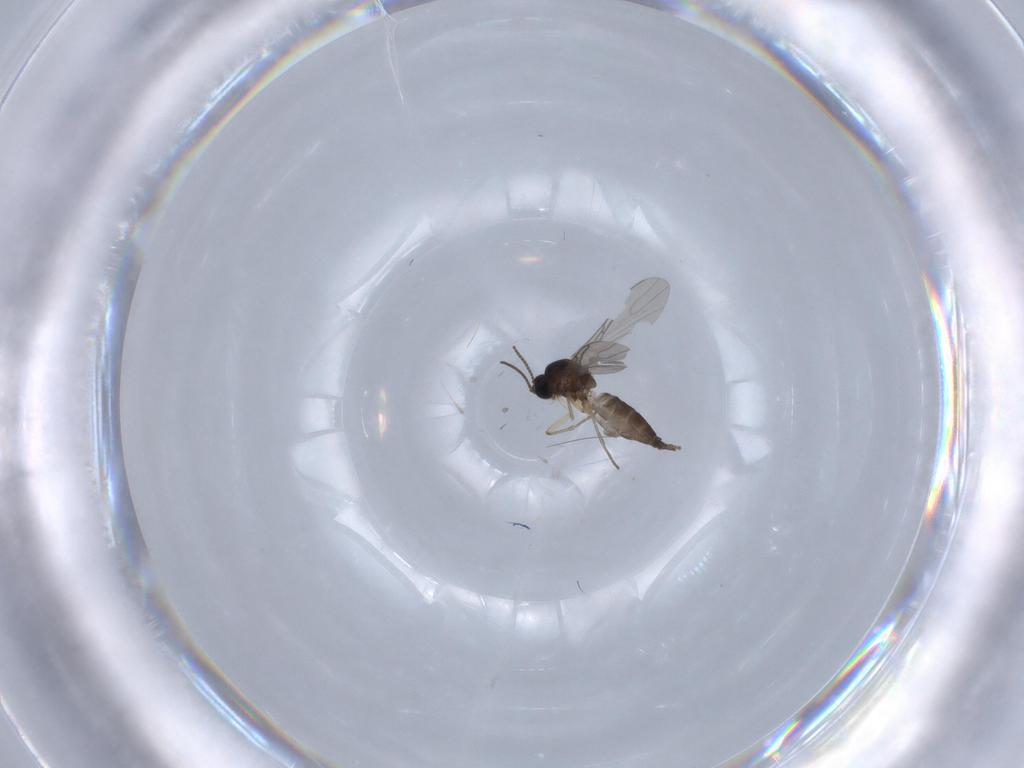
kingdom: Animalia
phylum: Arthropoda
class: Insecta
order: Diptera
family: Sciaridae
